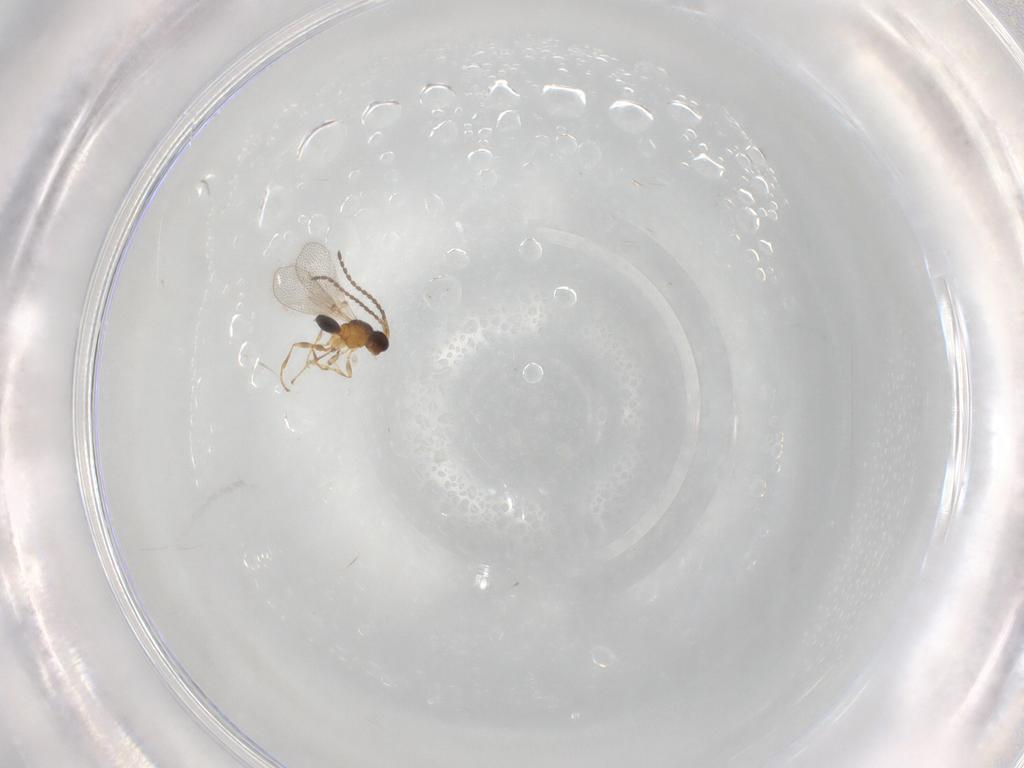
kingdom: Animalia
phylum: Arthropoda
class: Insecta
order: Hymenoptera
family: Diapriidae
